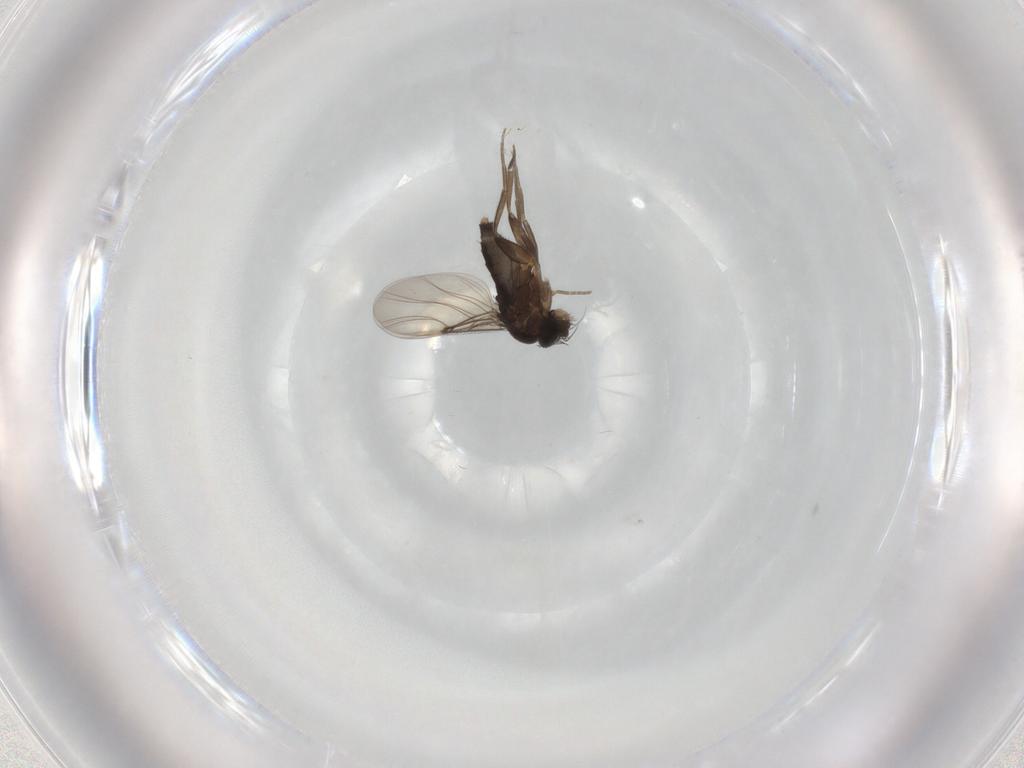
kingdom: Animalia
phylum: Arthropoda
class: Insecta
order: Diptera
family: Phoridae
